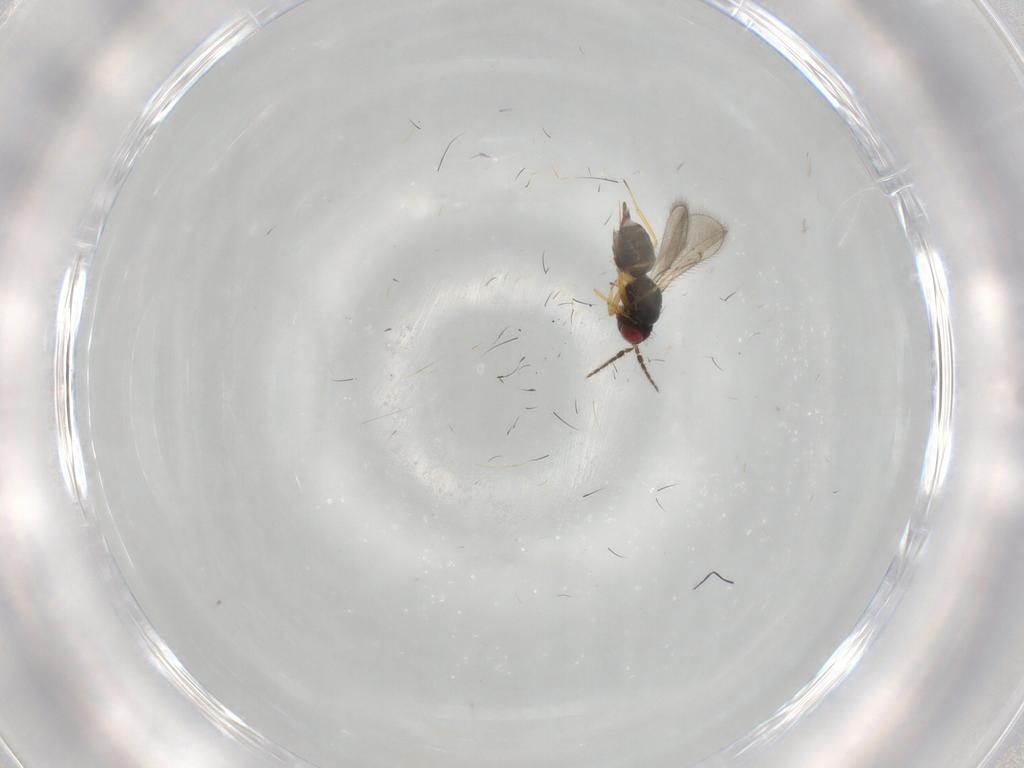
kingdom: Animalia
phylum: Arthropoda
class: Insecta
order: Hymenoptera
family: Eulophidae
